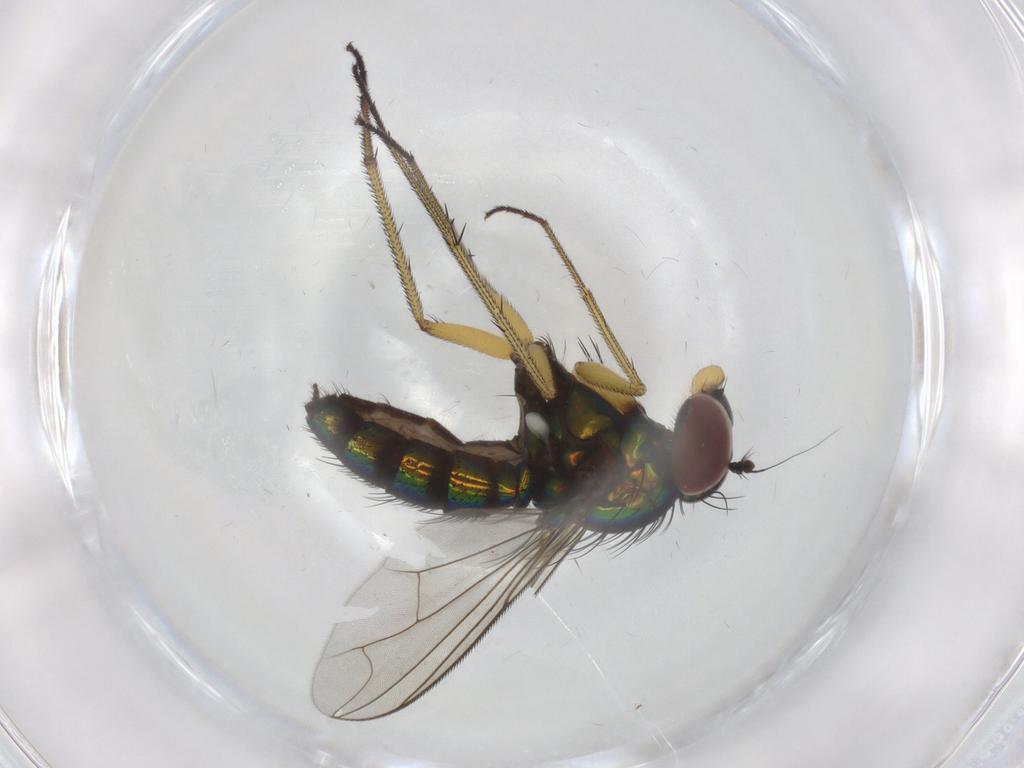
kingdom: Animalia
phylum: Arthropoda
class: Insecta
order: Diptera
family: Dolichopodidae
